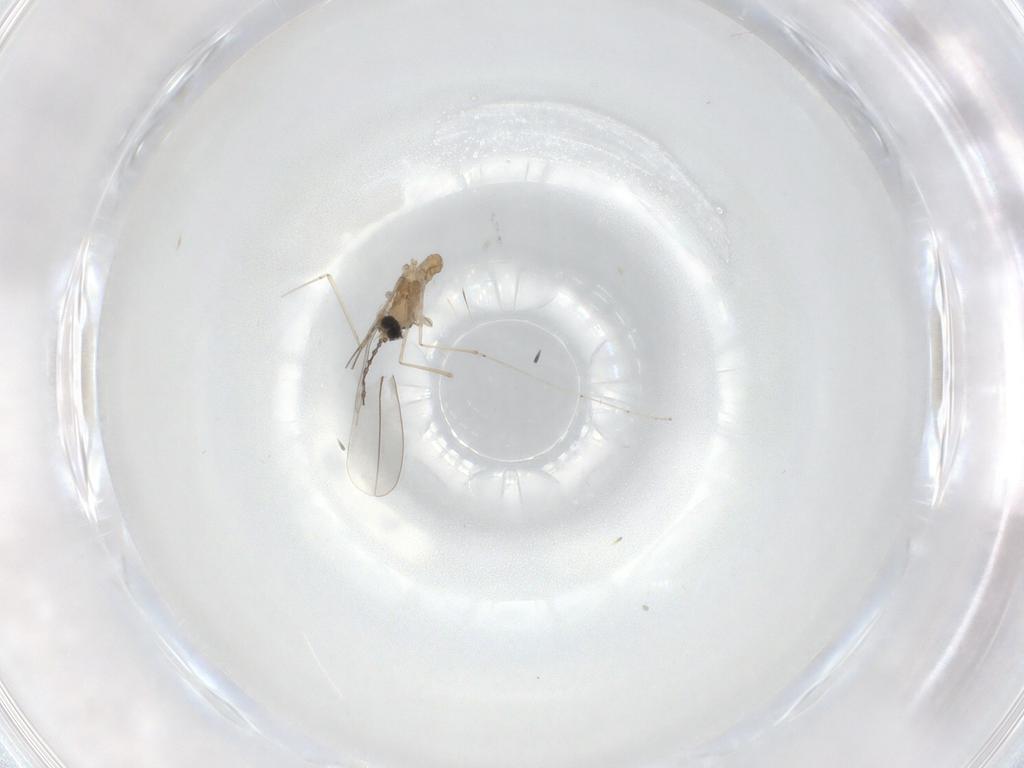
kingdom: Animalia
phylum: Arthropoda
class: Insecta
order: Diptera
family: Cecidomyiidae
